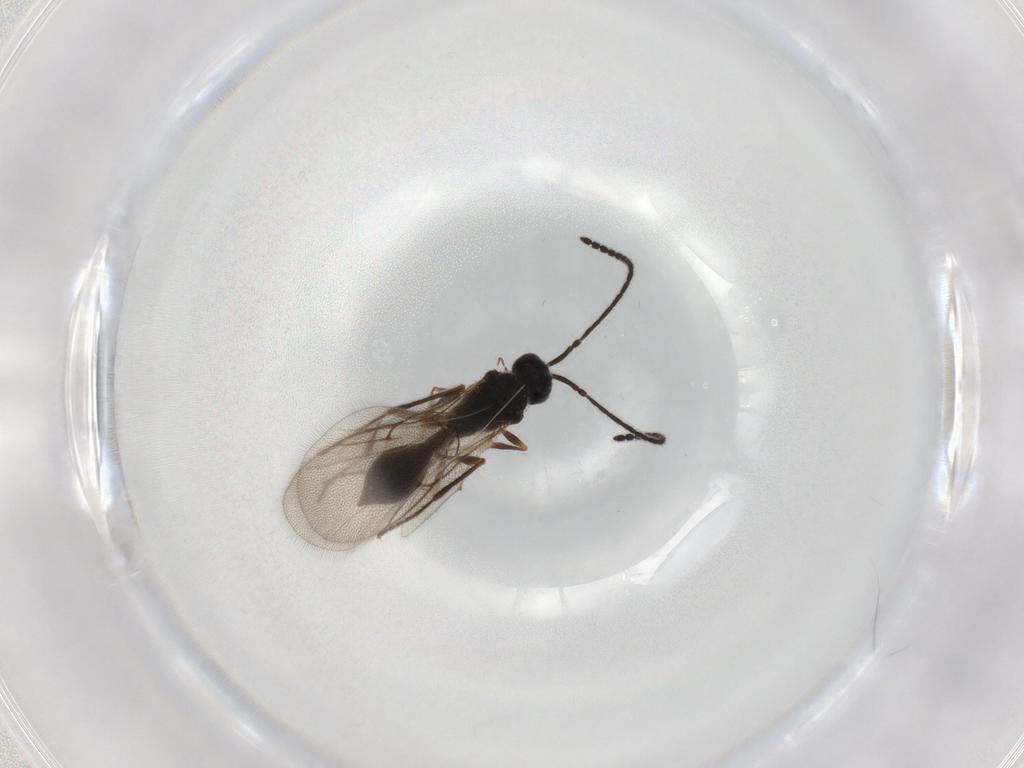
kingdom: Animalia
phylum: Arthropoda
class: Insecta
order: Hymenoptera
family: Diapriidae
